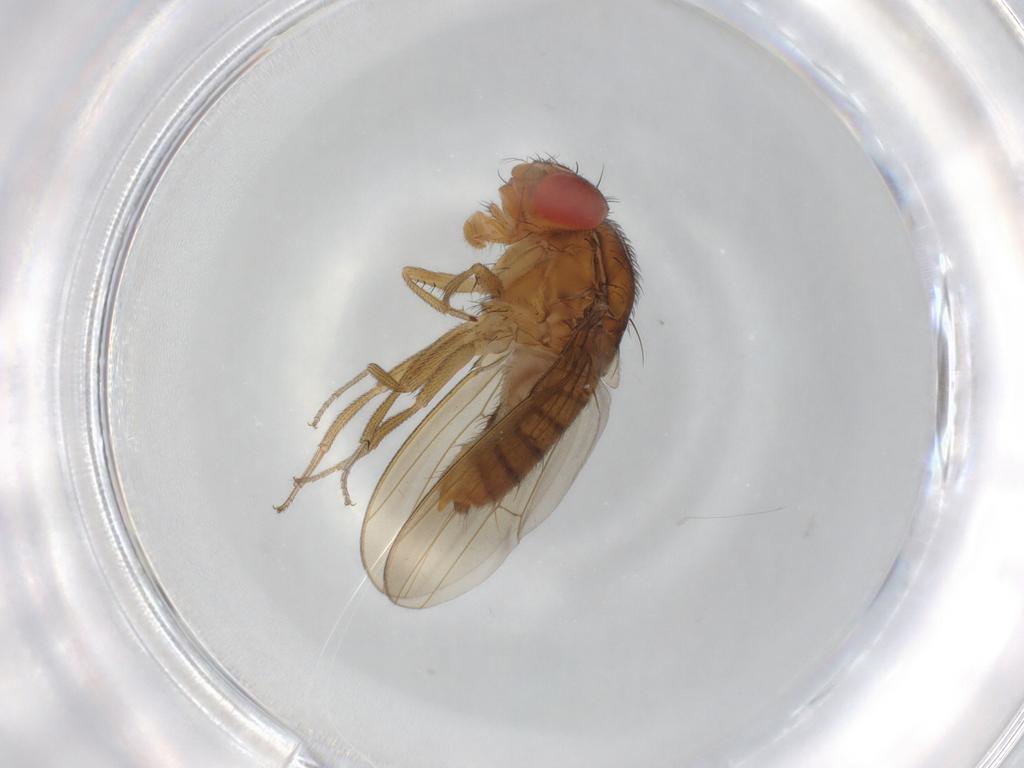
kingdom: Animalia
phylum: Arthropoda
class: Insecta
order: Diptera
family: Drosophilidae
